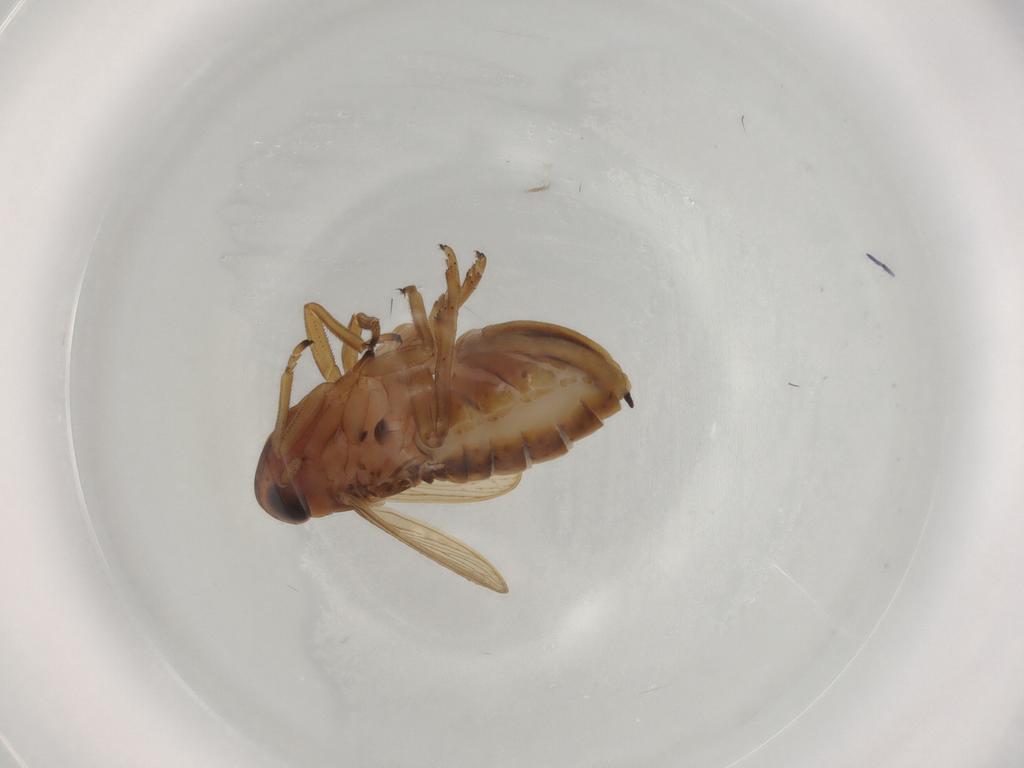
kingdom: Animalia
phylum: Arthropoda
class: Insecta
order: Hemiptera
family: Delphacidae
